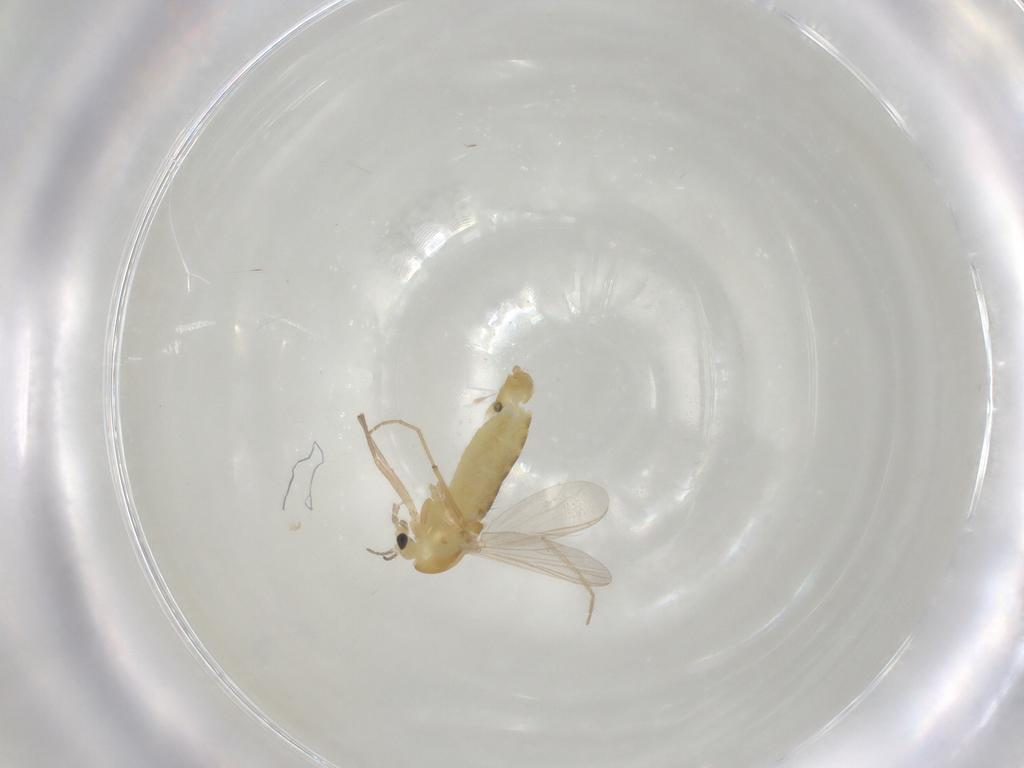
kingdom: Animalia
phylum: Arthropoda
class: Insecta
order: Diptera
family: Chironomidae
